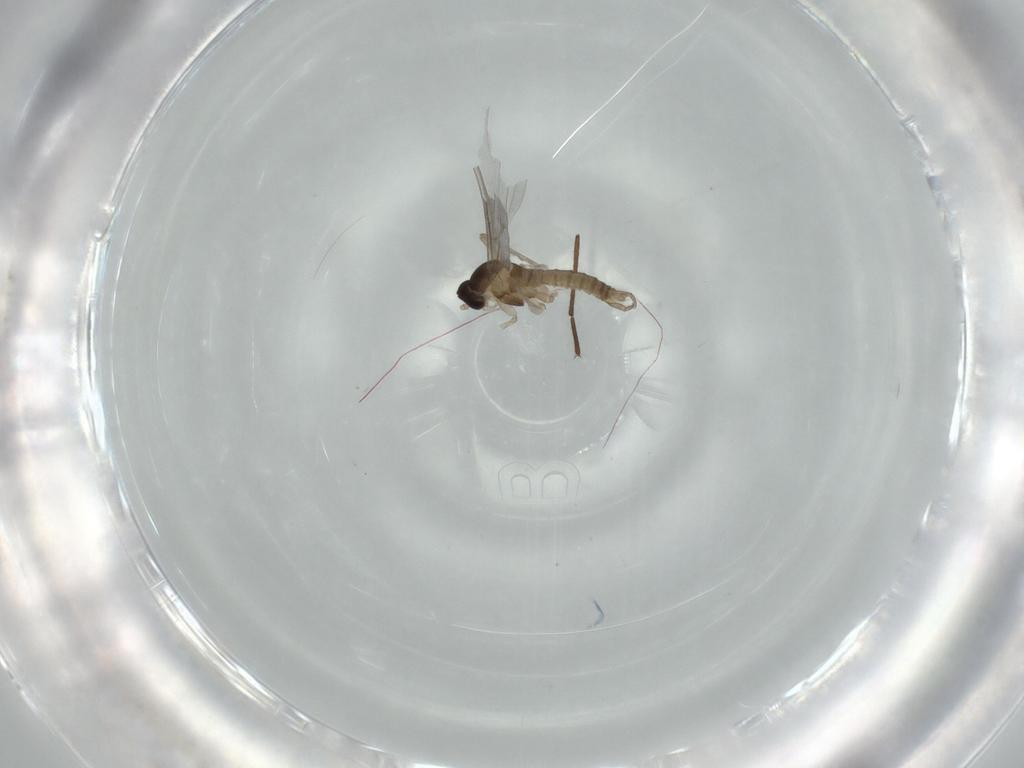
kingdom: Animalia
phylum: Arthropoda
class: Insecta
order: Diptera
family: Cecidomyiidae
